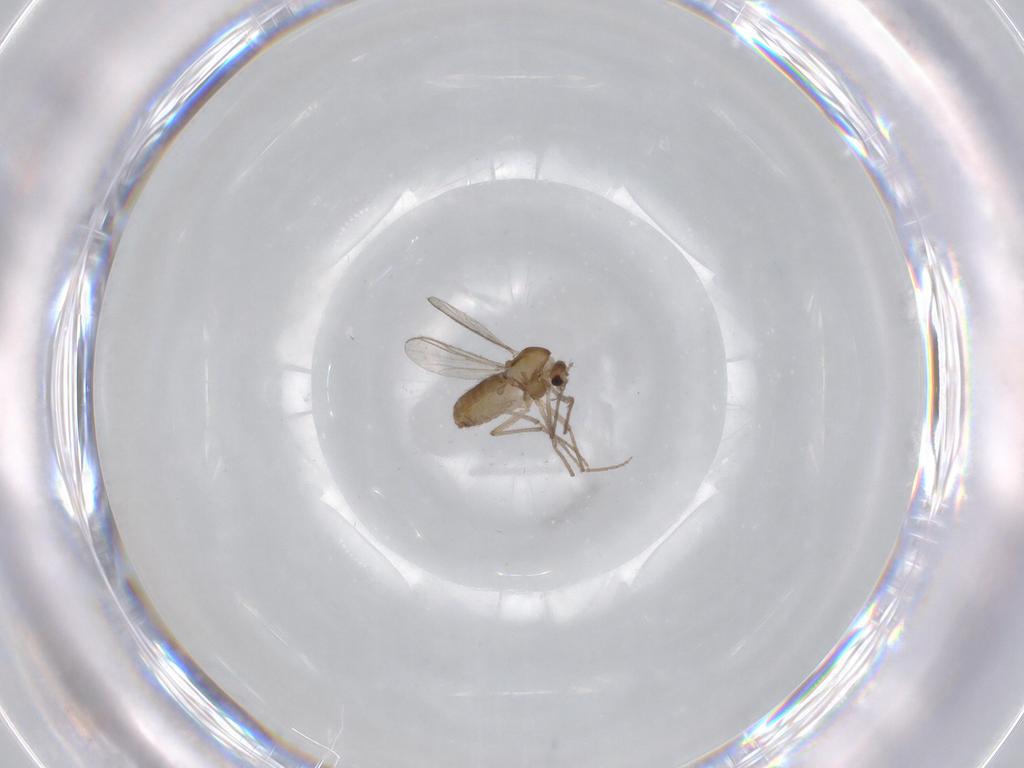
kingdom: Animalia
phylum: Arthropoda
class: Insecta
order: Diptera
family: Chironomidae
